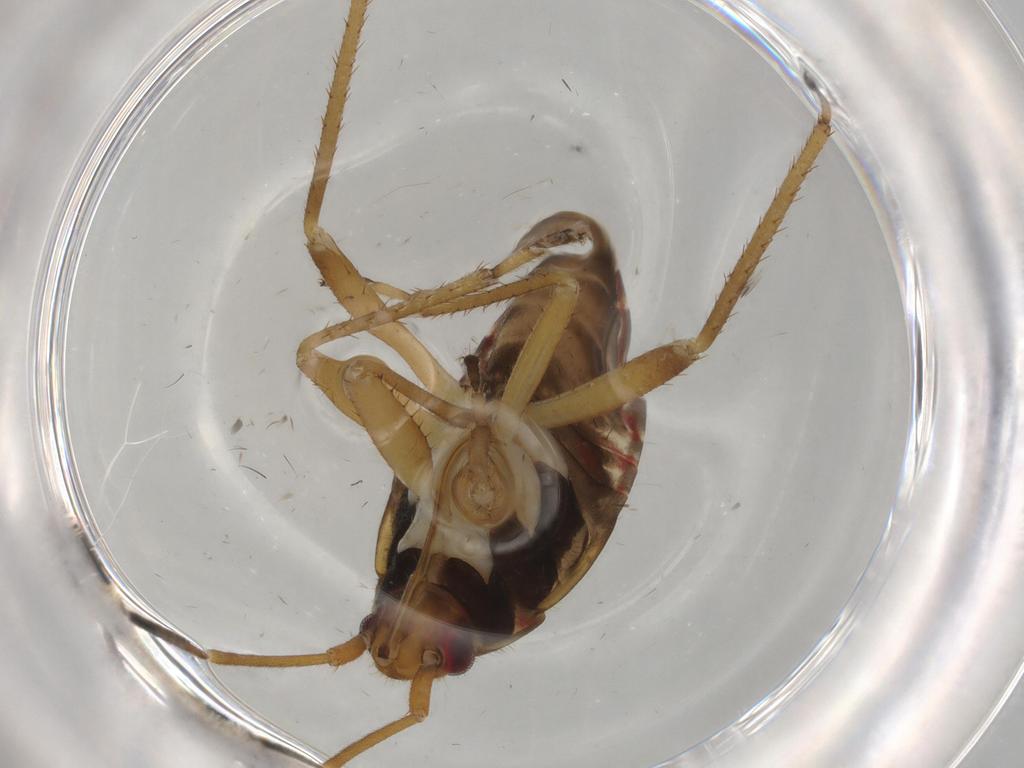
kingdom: Animalia
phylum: Arthropoda
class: Insecta
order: Hemiptera
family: Rhyparochromidae
